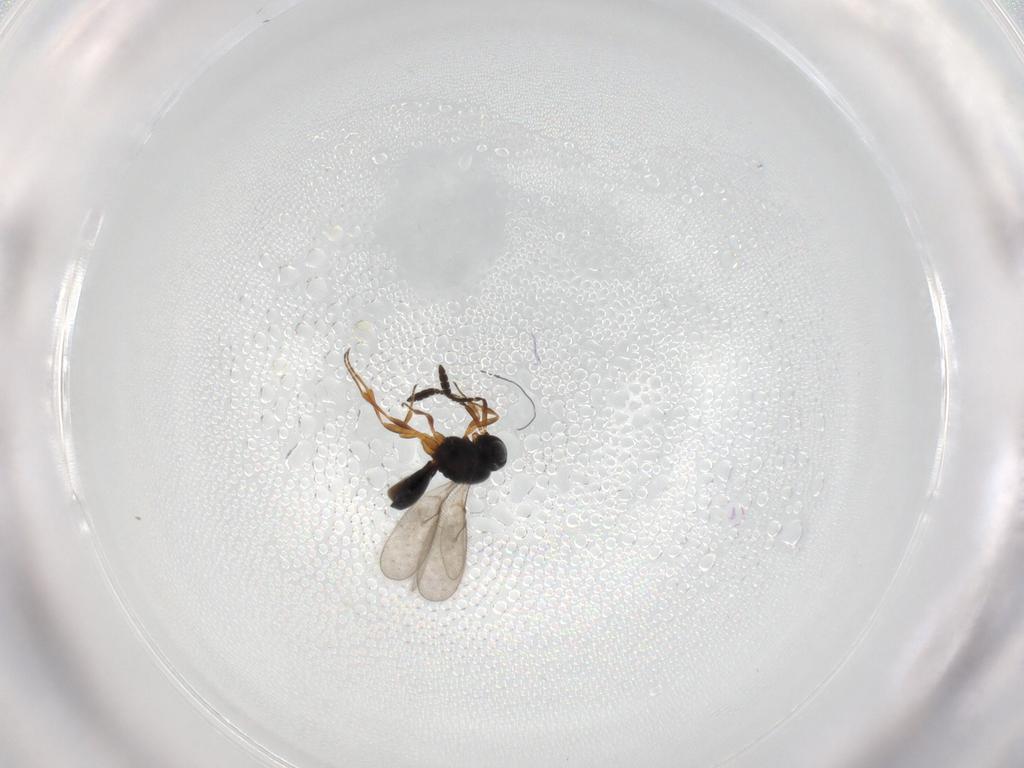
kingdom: Animalia
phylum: Arthropoda
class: Insecta
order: Hymenoptera
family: Scelionidae
